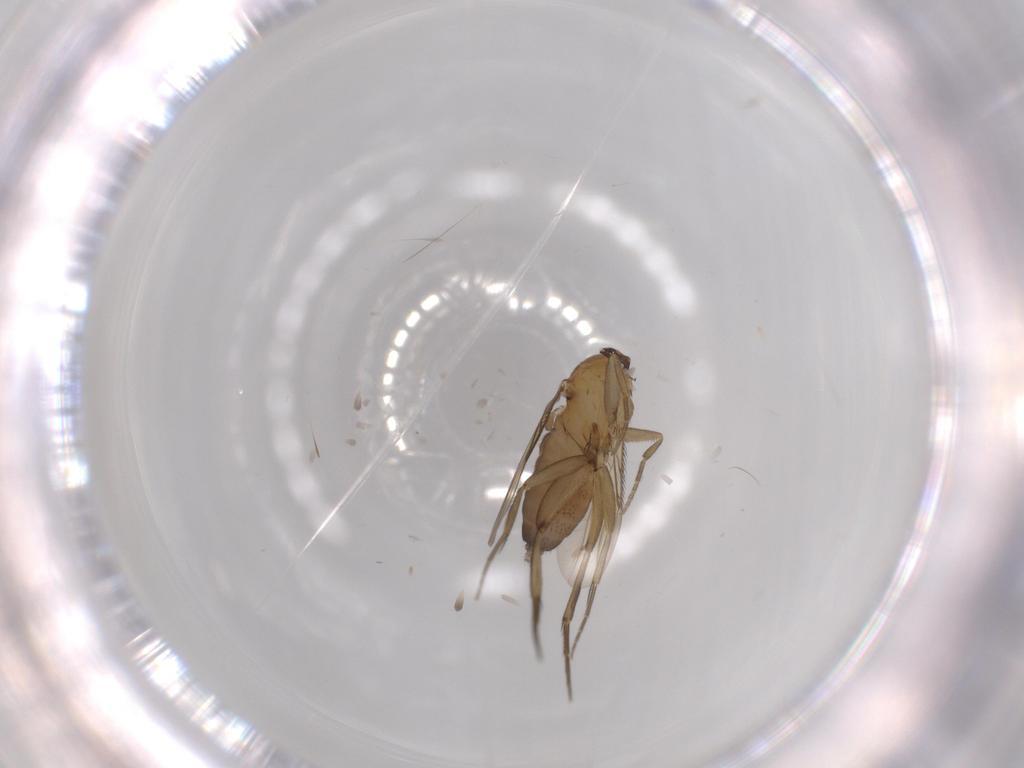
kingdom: Animalia
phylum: Arthropoda
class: Insecta
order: Diptera
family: Phoridae
